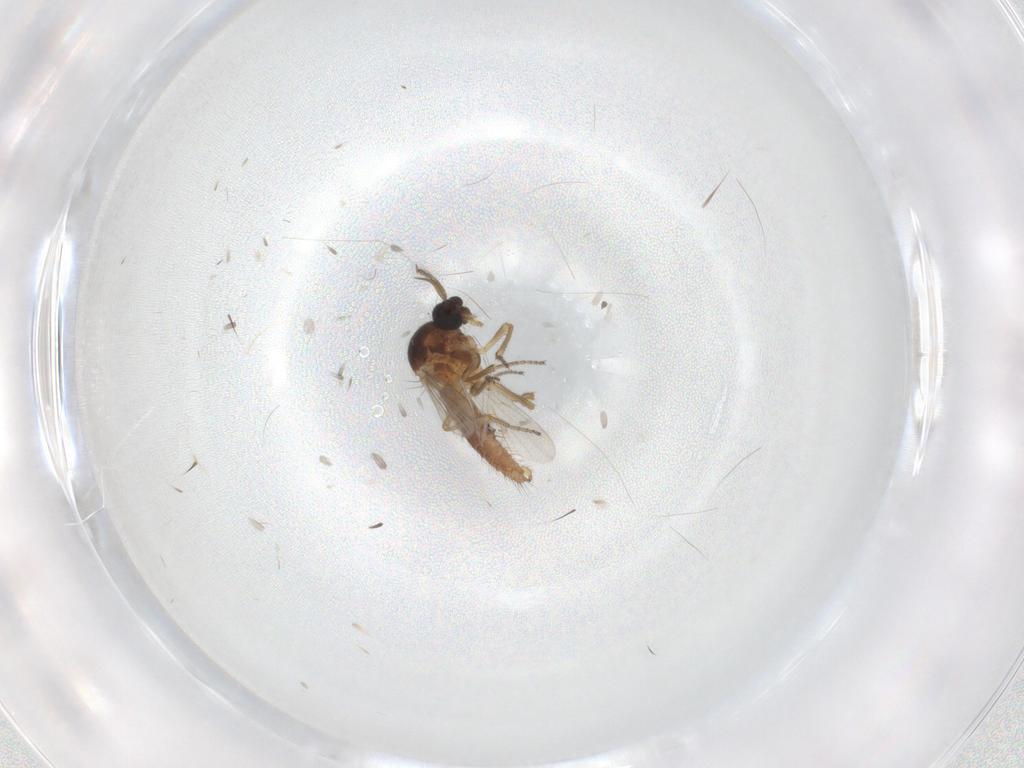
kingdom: Animalia
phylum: Arthropoda
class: Insecta
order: Diptera
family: Ceratopogonidae
